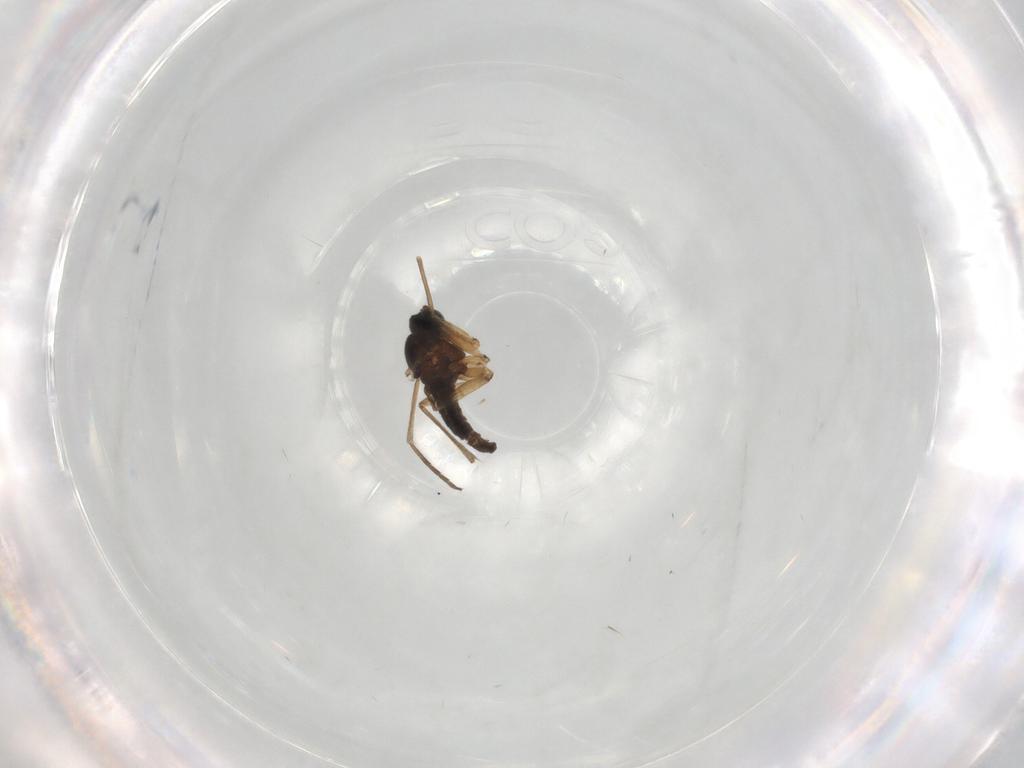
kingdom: Animalia
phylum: Arthropoda
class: Insecta
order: Diptera
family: Sciaridae
